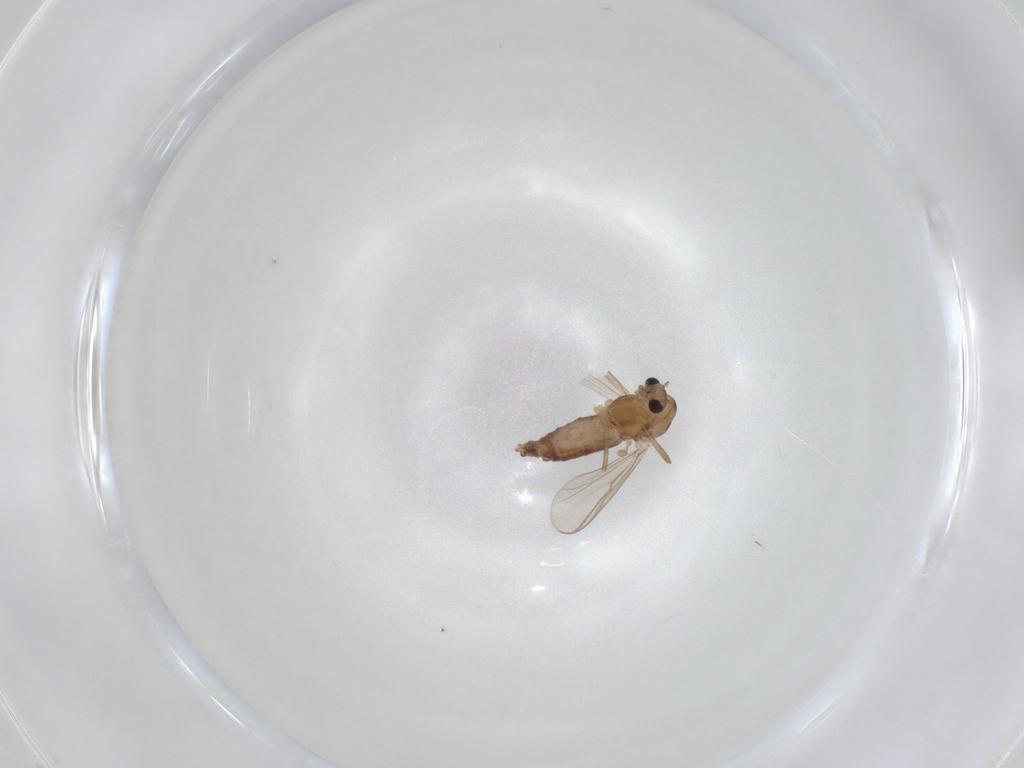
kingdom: Animalia
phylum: Arthropoda
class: Insecta
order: Diptera
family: Chironomidae
